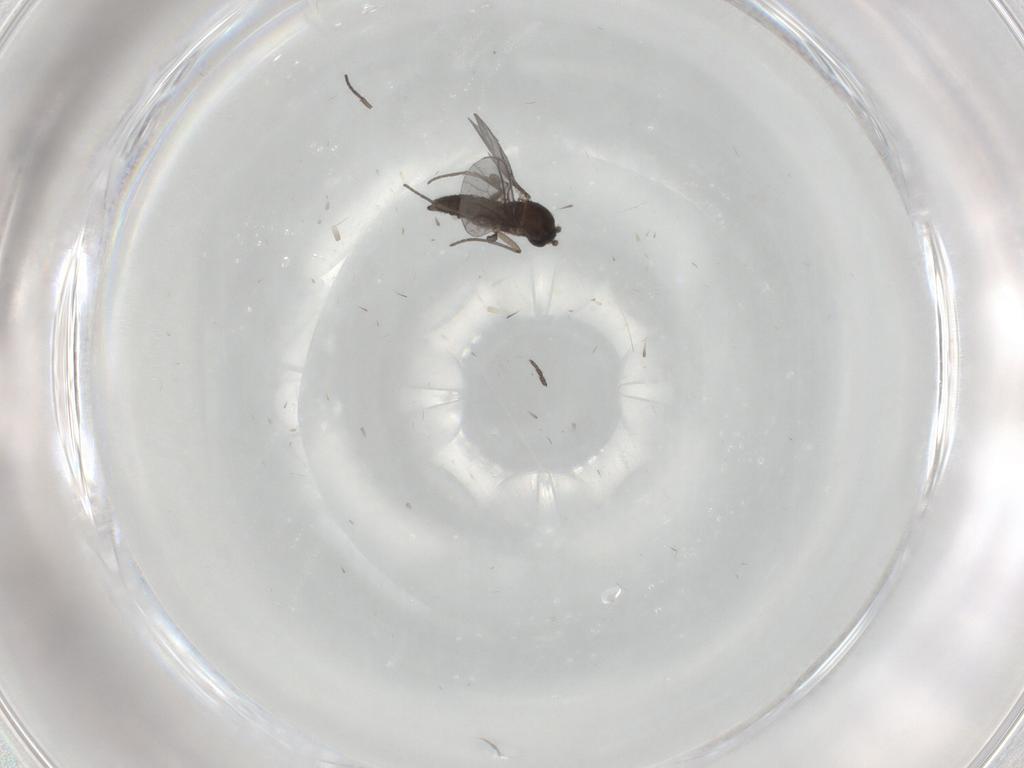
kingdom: Animalia
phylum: Arthropoda
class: Insecta
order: Diptera
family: Sciaridae
